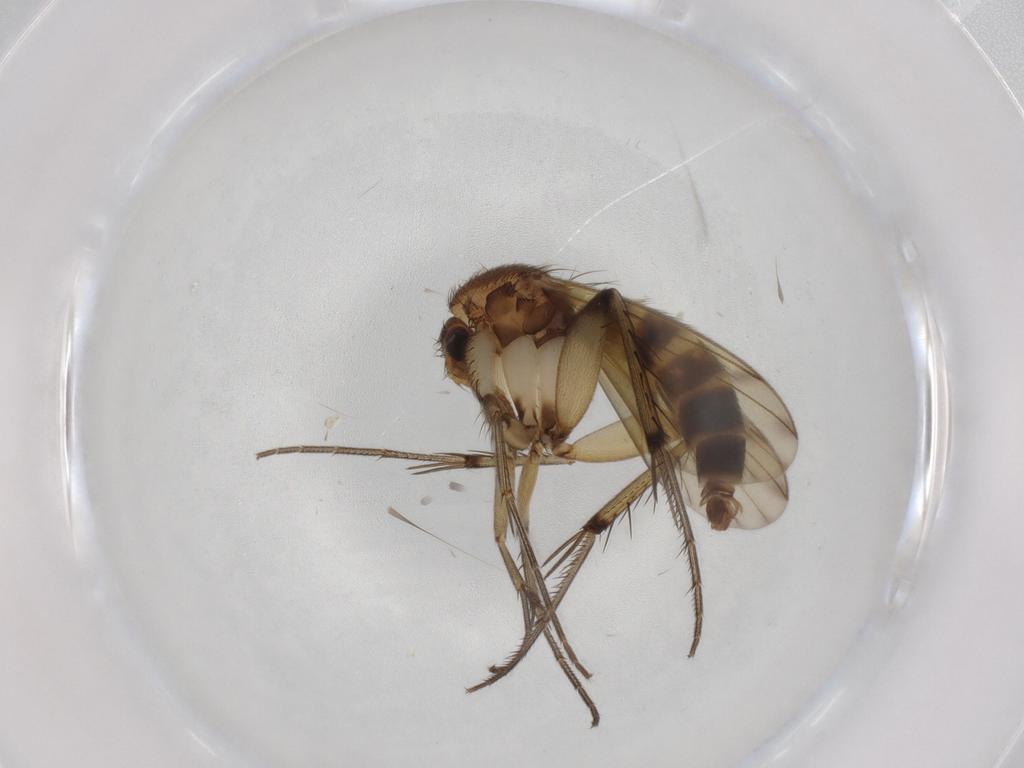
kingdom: Animalia
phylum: Arthropoda
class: Insecta
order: Diptera
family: Mycetophilidae
